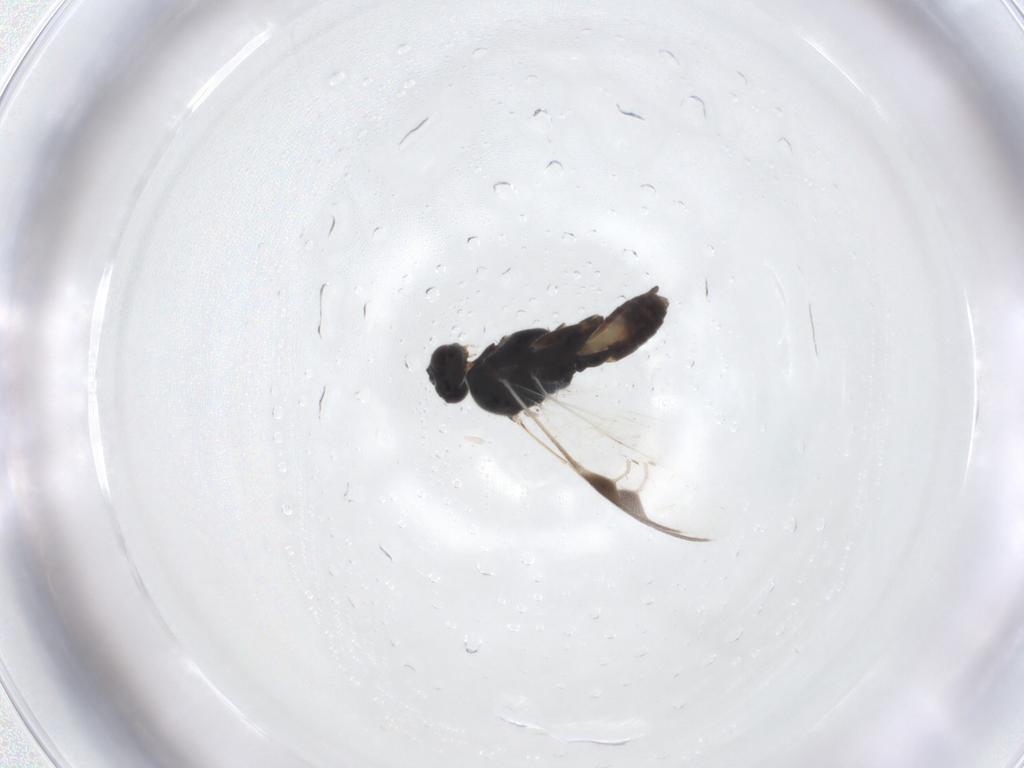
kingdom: Animalia
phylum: Arthropoda
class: Insecta
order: Hymenoptera
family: Braconidae
